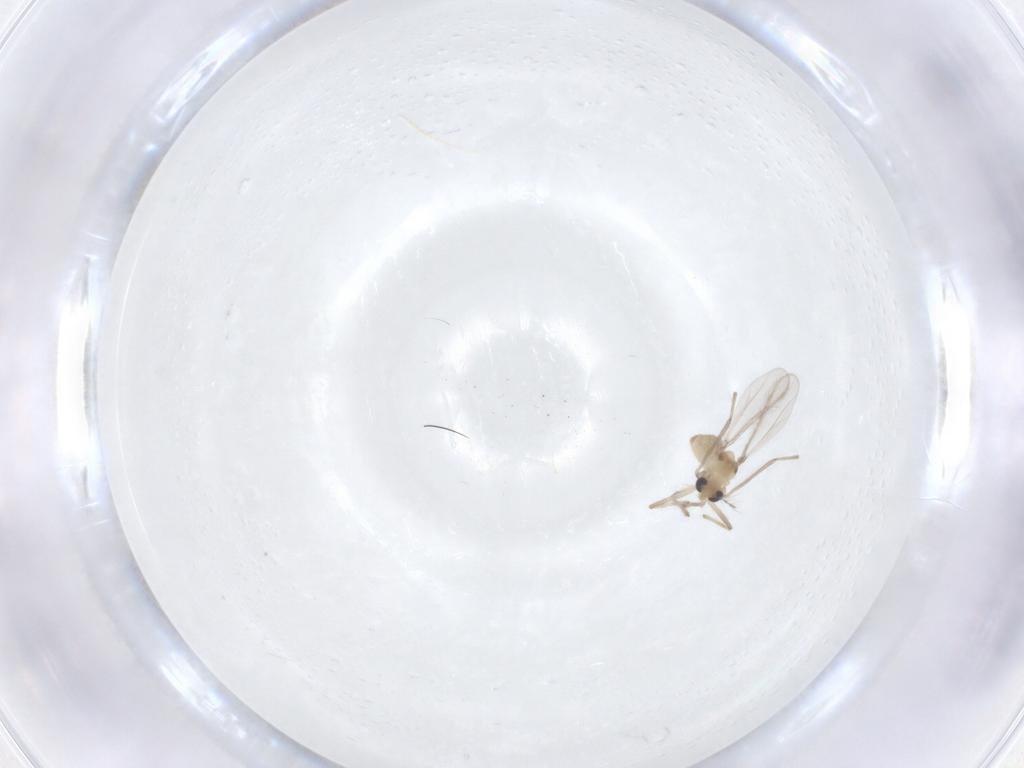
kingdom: Animalia
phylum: Arthropoda
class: Insecta
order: Diptera
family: Chironomidae
